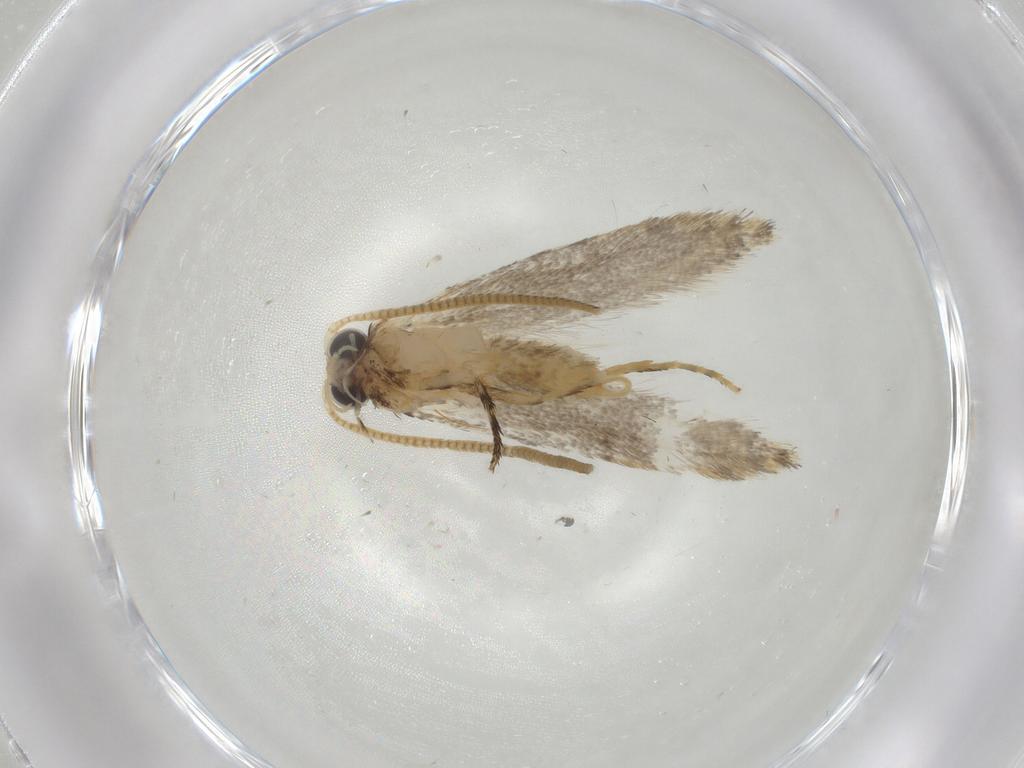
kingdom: Animalia
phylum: Arthropoda
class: Insecta
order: Lepidoptera
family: Tineidae
